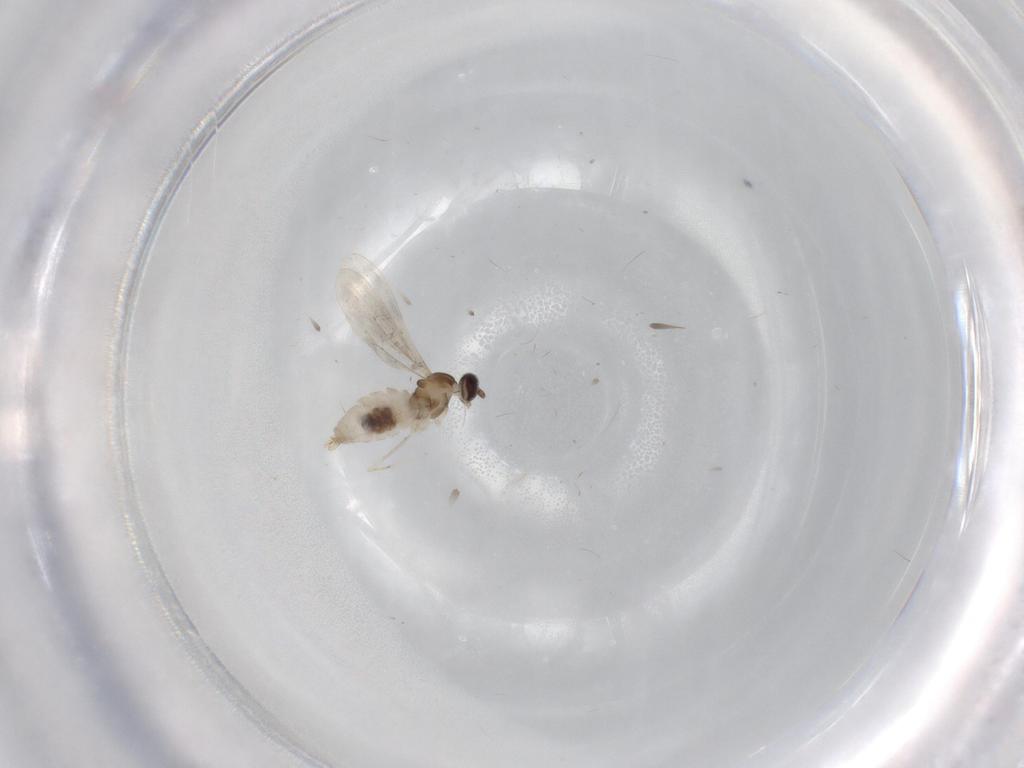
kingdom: Animalia
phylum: Arthropoda
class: Insecta
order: Diptera
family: Cecidomyiidae
